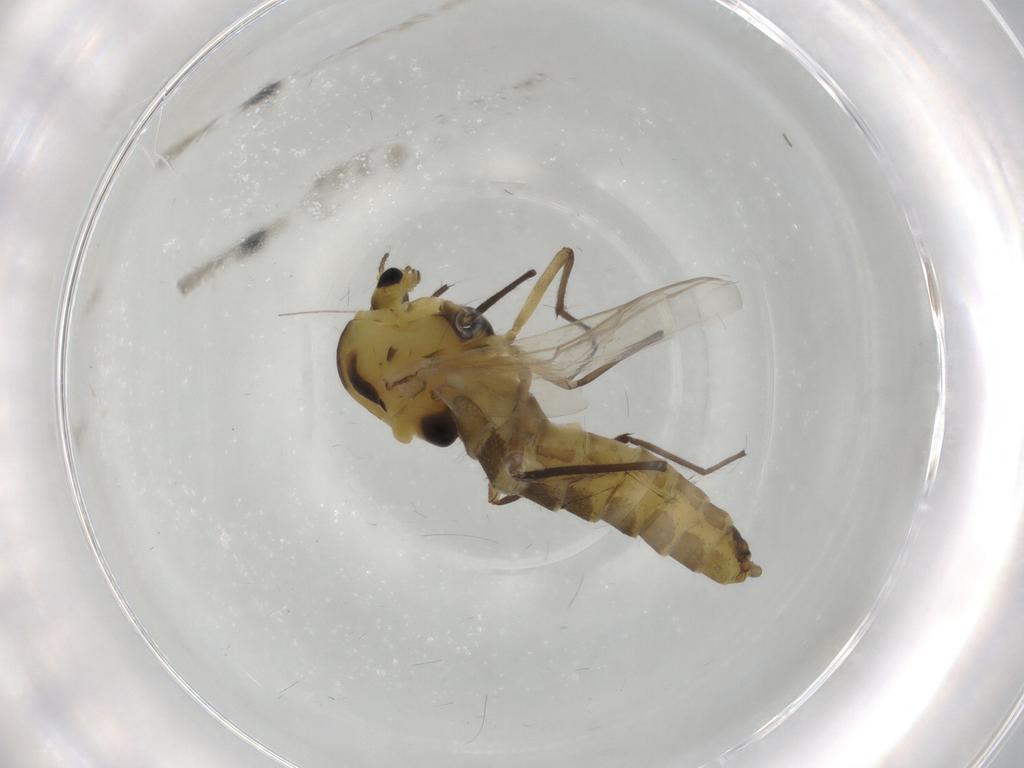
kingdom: Animalia
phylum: Arthropoda
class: Insecta
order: Diptera
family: Chironomidae
